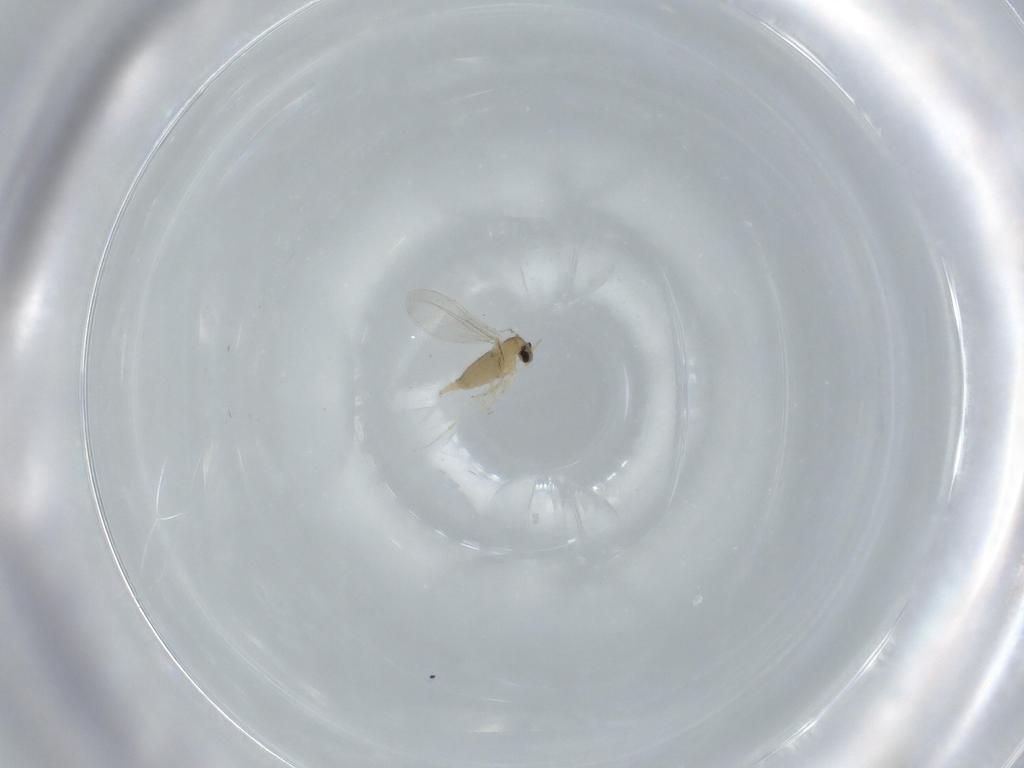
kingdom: Animalia
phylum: Arthropoda
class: Insecta
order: Diptera
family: Cecidomyiidae
